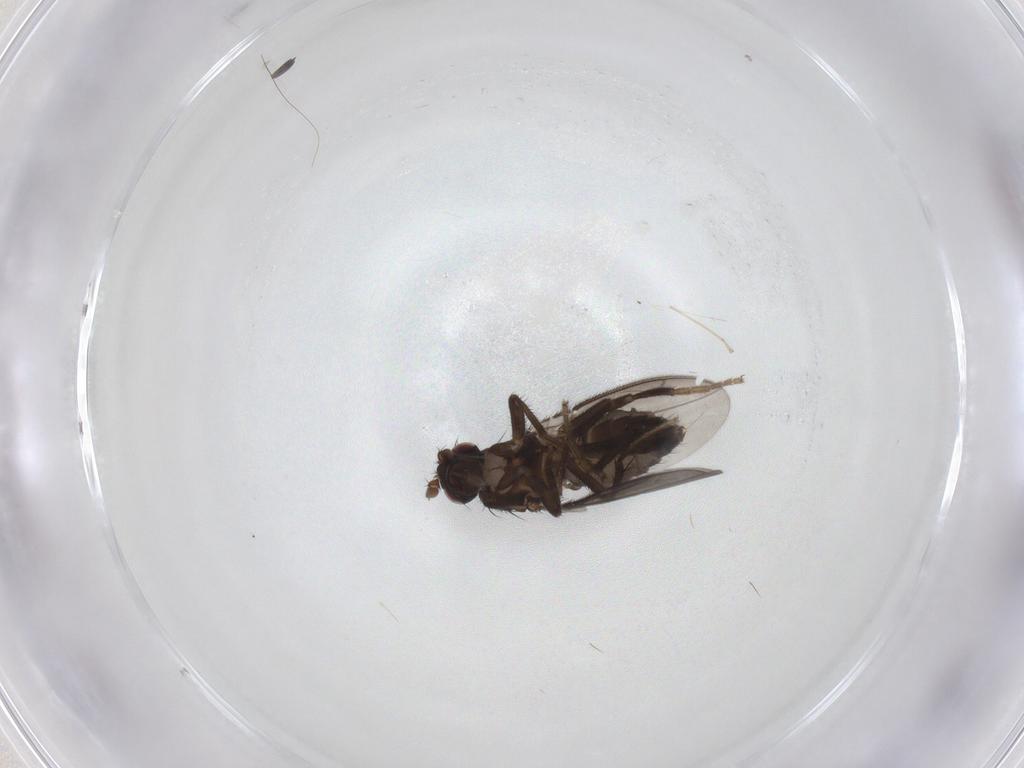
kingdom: Animalia
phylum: Arthropoda
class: Insecta
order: Diptera
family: Sphaeroceridae
